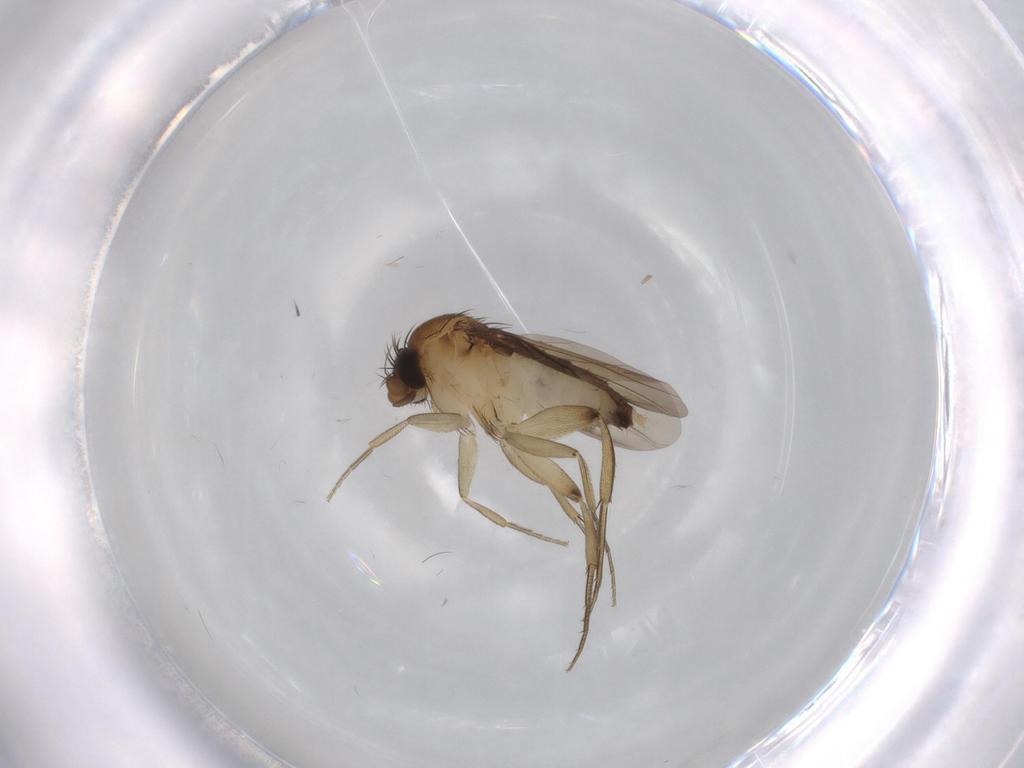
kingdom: Animalia
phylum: Arthropoda
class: Insecta
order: Diptera
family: Phoridae
